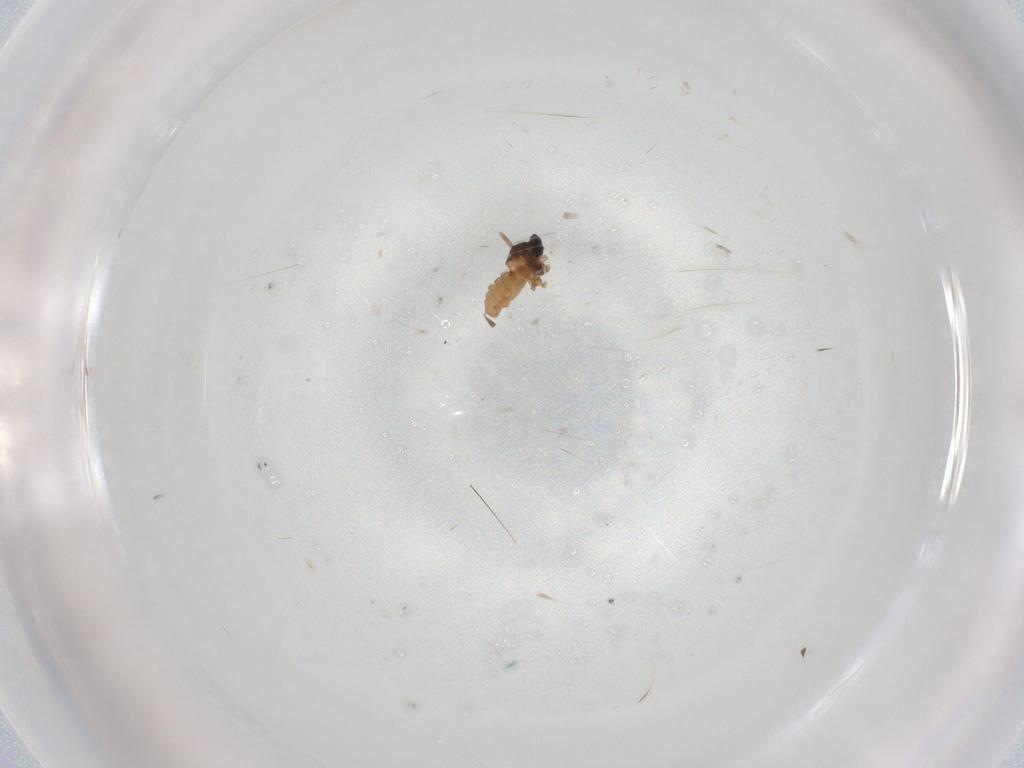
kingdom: Animalia
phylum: Arthropoda
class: Insecta
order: Diptera
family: Cecidomyiidae
